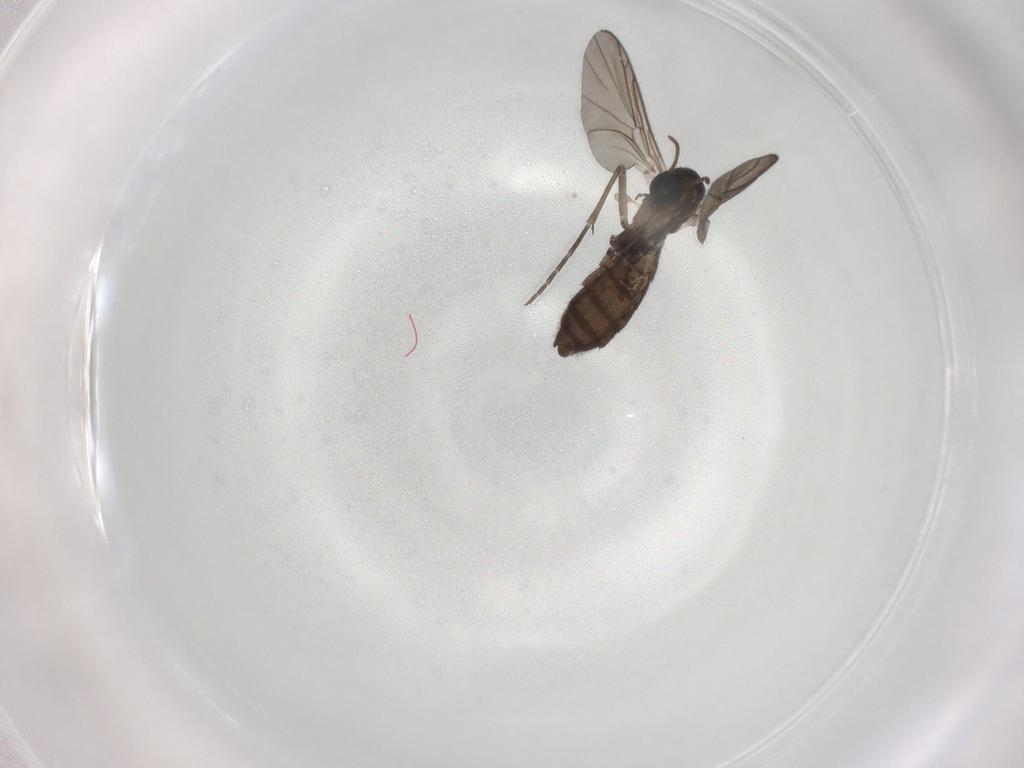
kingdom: Animalia
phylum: Arthropoda
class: Insecta
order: Diptera
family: Keroplatidae
